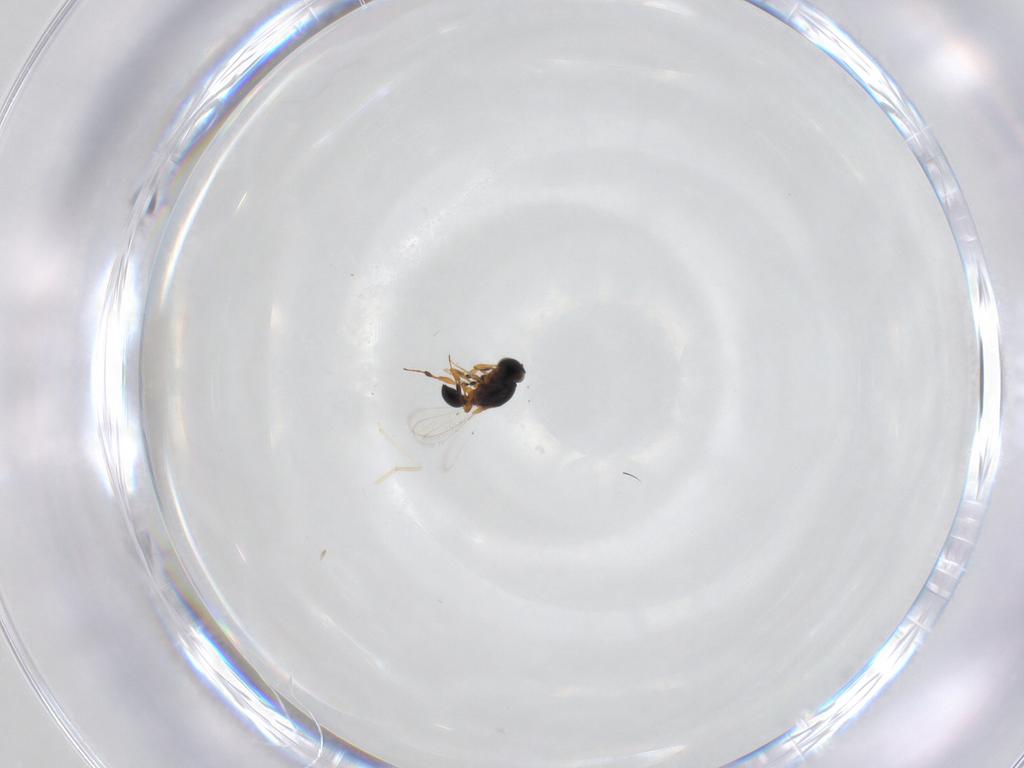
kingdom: Animalia
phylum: Arthropoda
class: Insecta
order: Hymenoptera
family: Platygastridae
